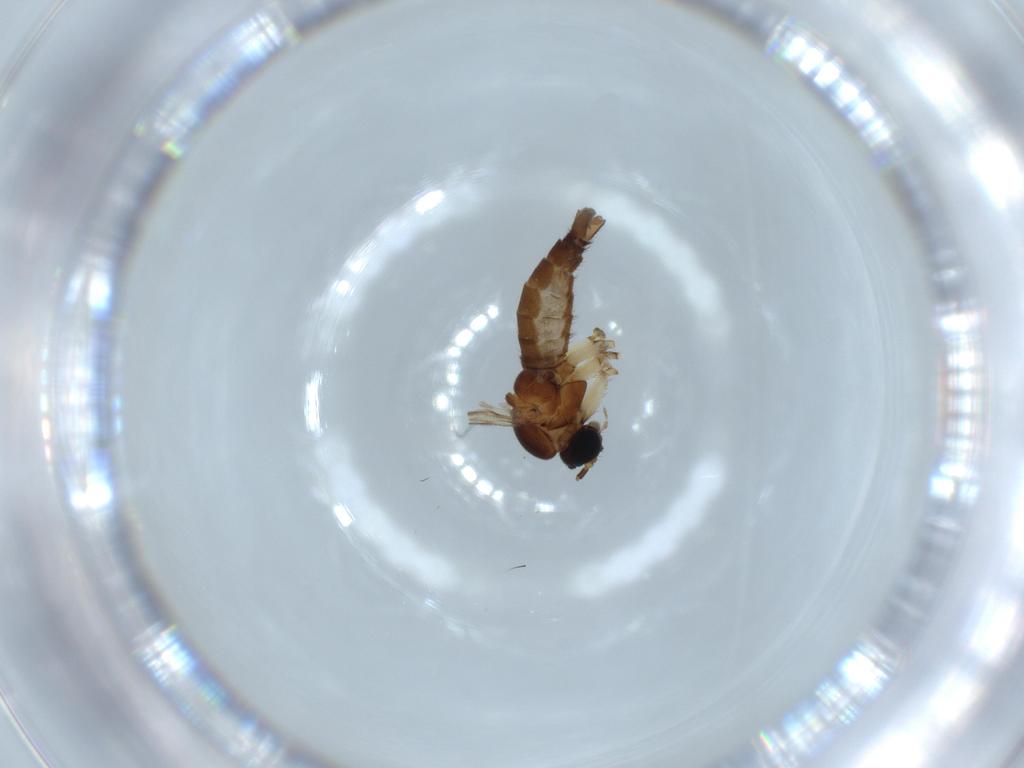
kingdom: Animalia
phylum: Arthropoda
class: Insecta
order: Diptera
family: Sciaridae
